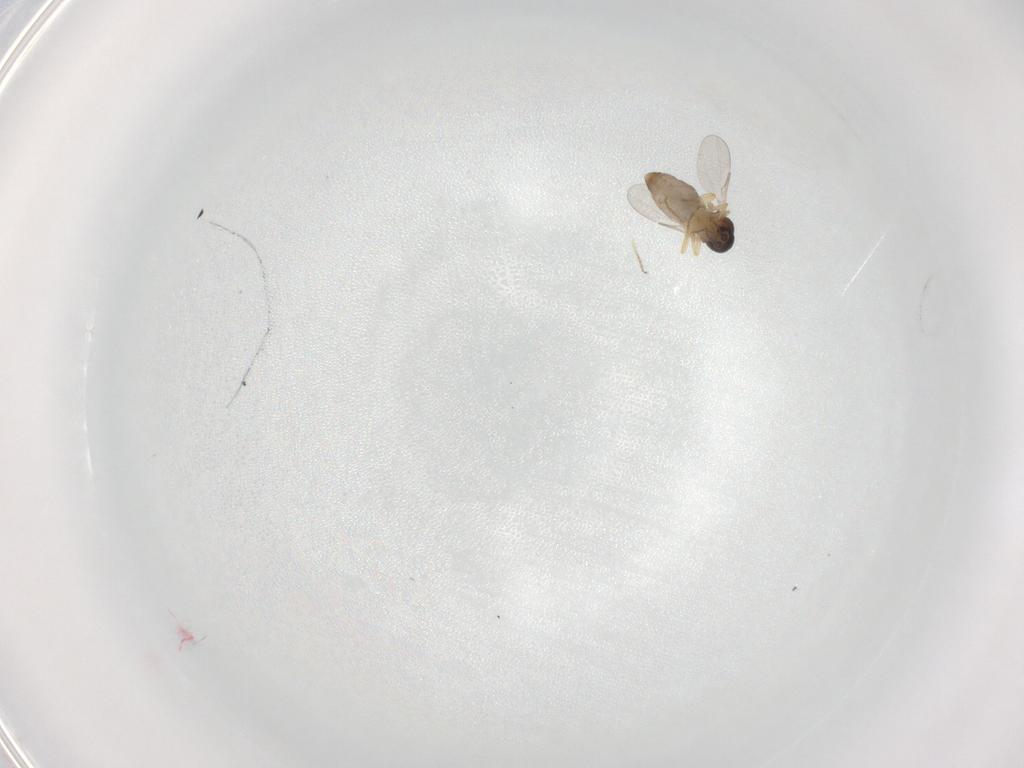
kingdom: Animalia
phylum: Arthropoda
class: Insecta
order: Diptera
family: Ceratopogonidae
